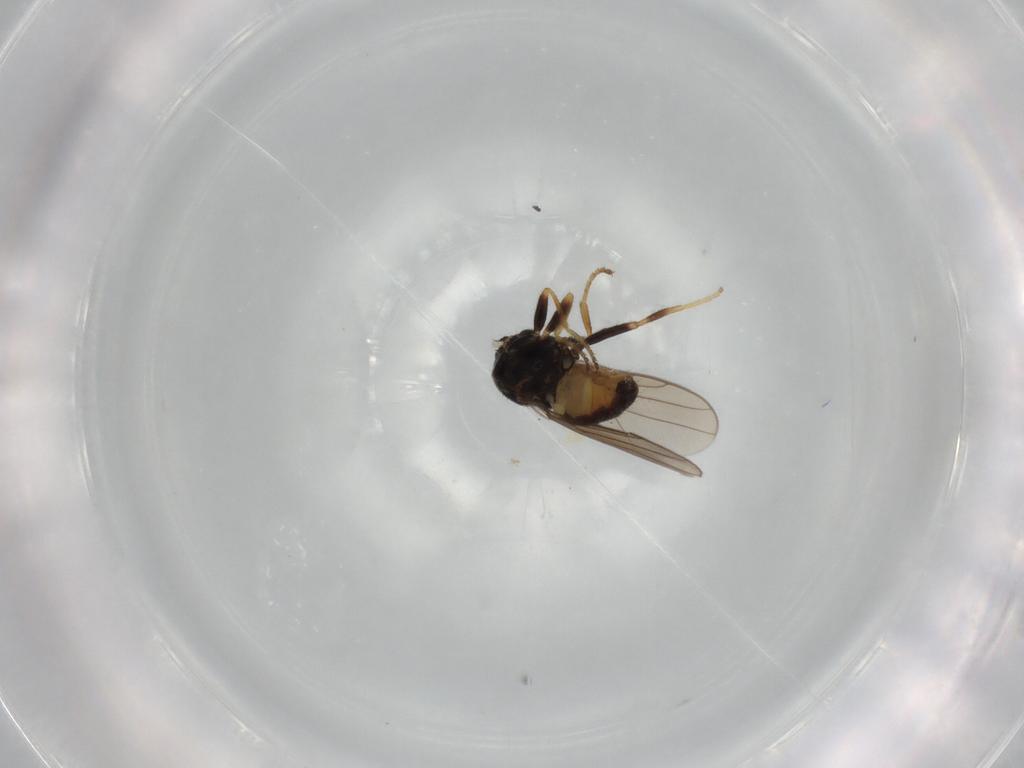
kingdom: Animalia
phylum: Arthropoda
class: Insecta
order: Diptera
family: Chloropidae
